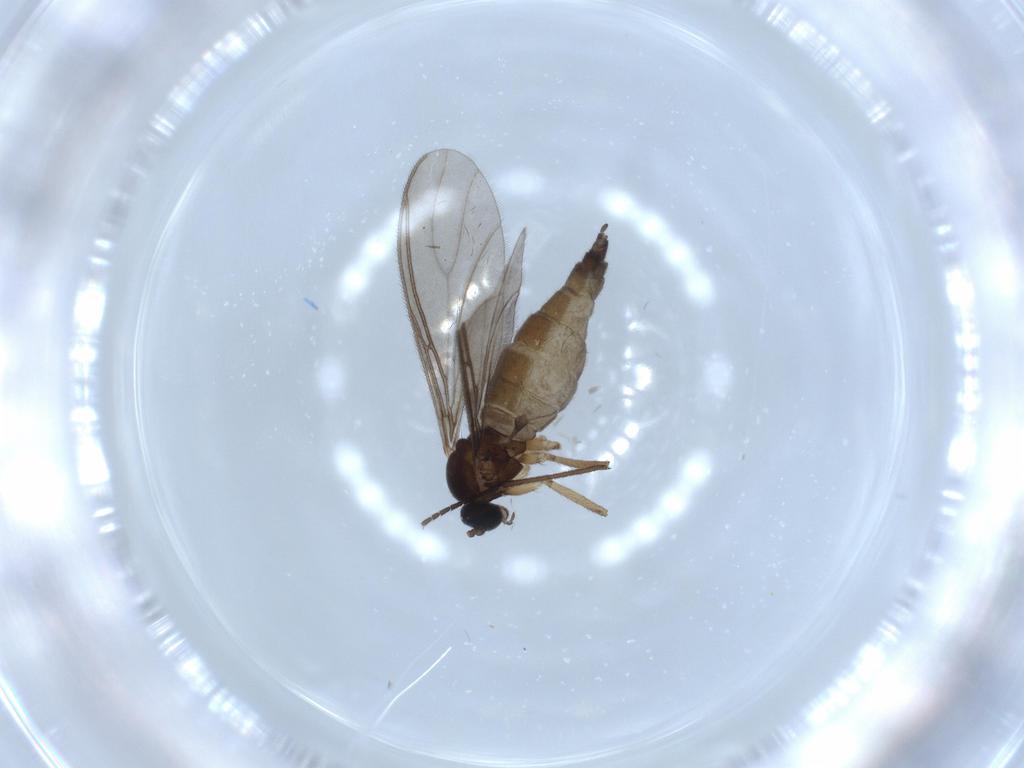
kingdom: Animalia
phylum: Arthropoda
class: Insecta
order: Diptera
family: Sciaridae
